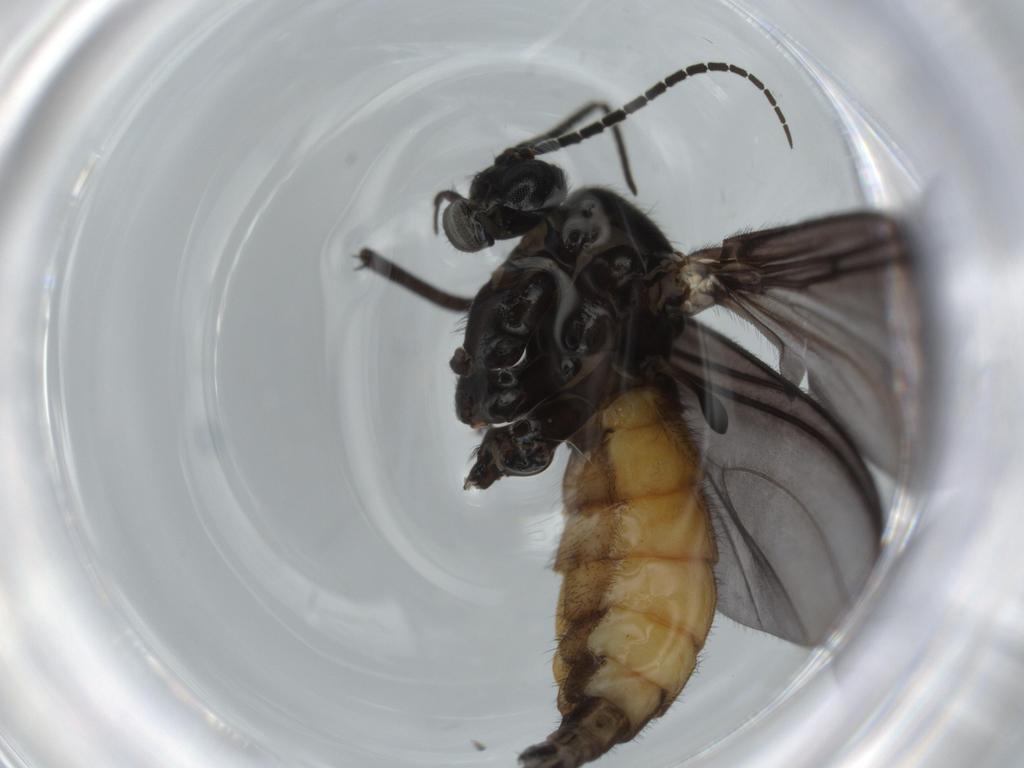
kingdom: Animalia
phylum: Arthropoda
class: Insecta
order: Diptera
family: Cecidomyiidae
